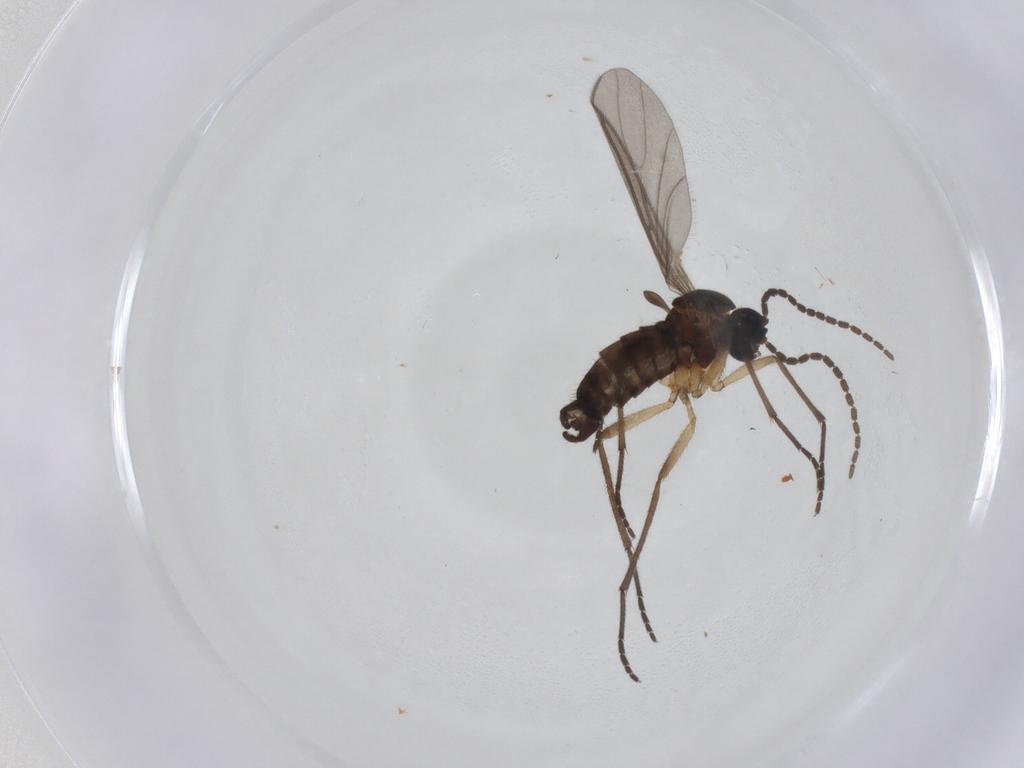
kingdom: Animalia
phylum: Arthropoda
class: Insecta
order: Diptera
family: Sciaridae
